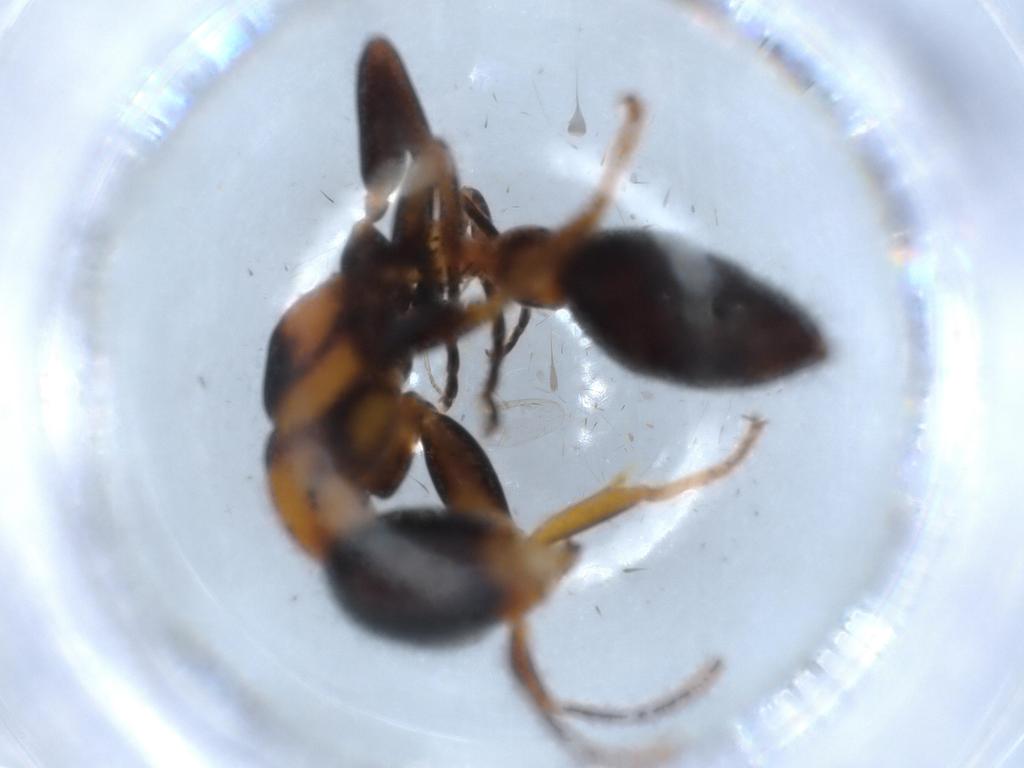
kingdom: Animalia
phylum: Arthropoda
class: Insecta
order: Hymenoptera
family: Formicidae
